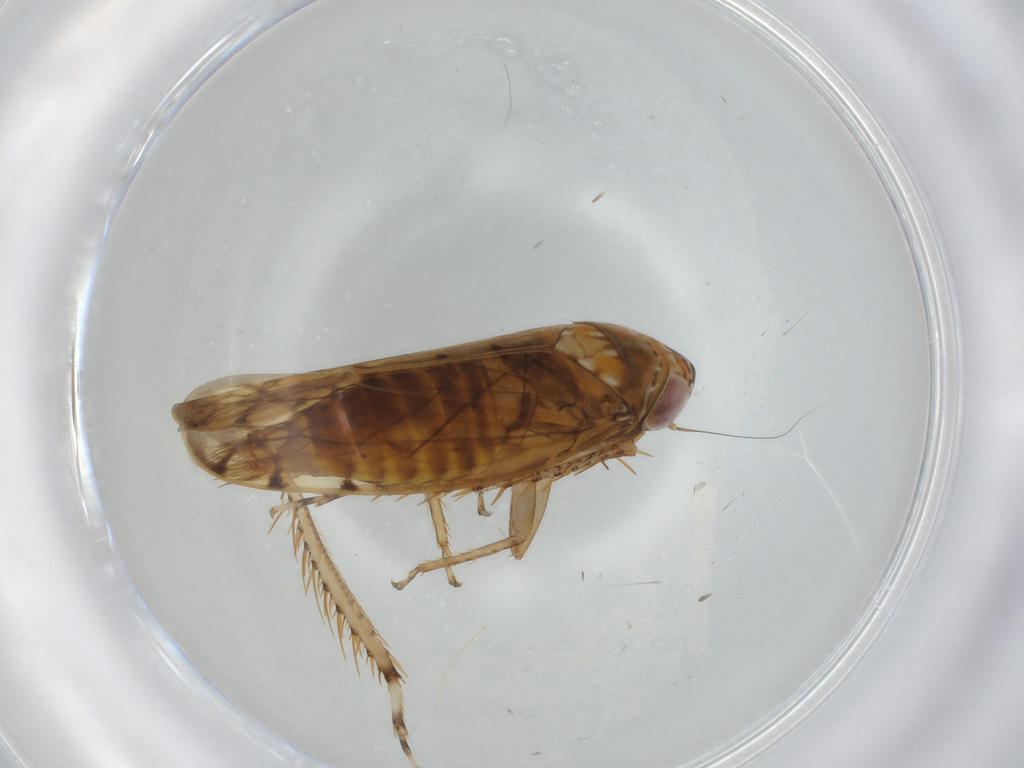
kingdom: Animalia
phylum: Arthropoda
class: Insecta
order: Hemiptera
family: Cicadellidae
